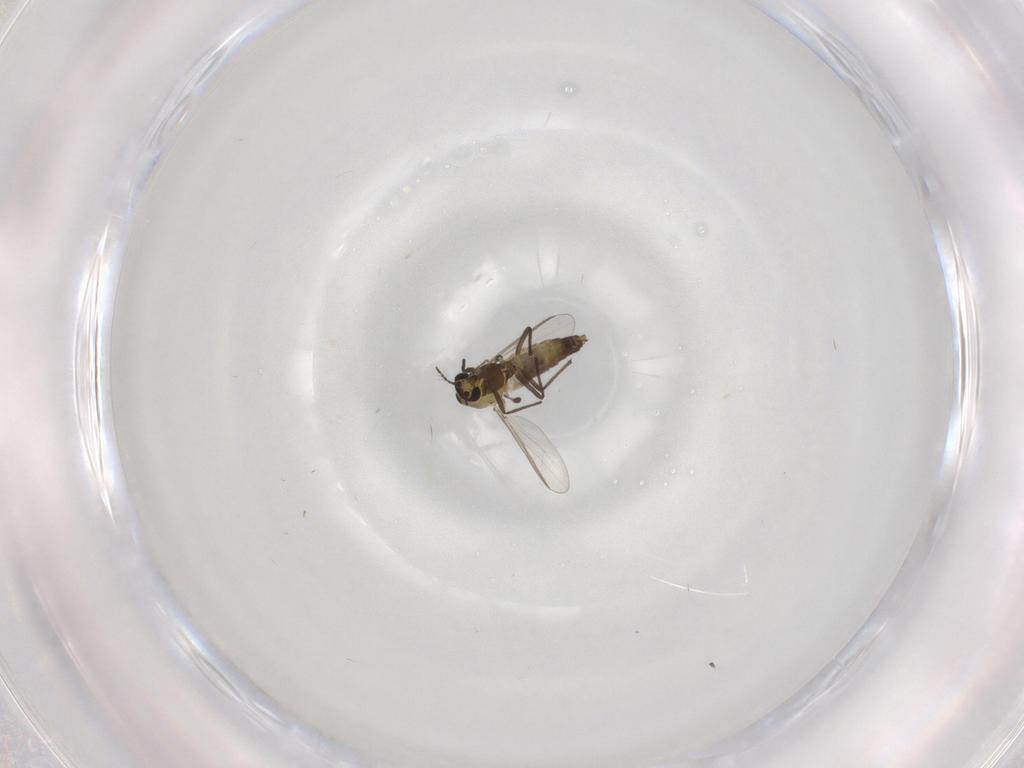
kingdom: Animalia
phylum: Arthropoda
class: Insecta
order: Diptera
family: Chironomidae
